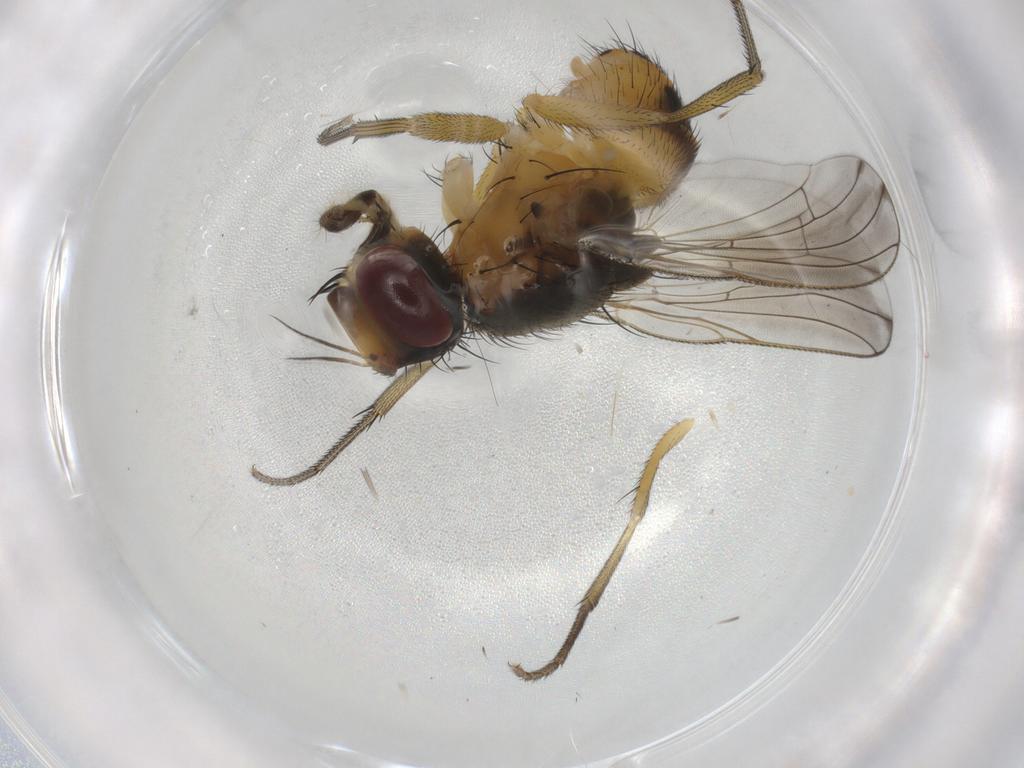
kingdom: Animalia
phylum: Arthropoda
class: Insecta
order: Diptera
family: Muscidae
